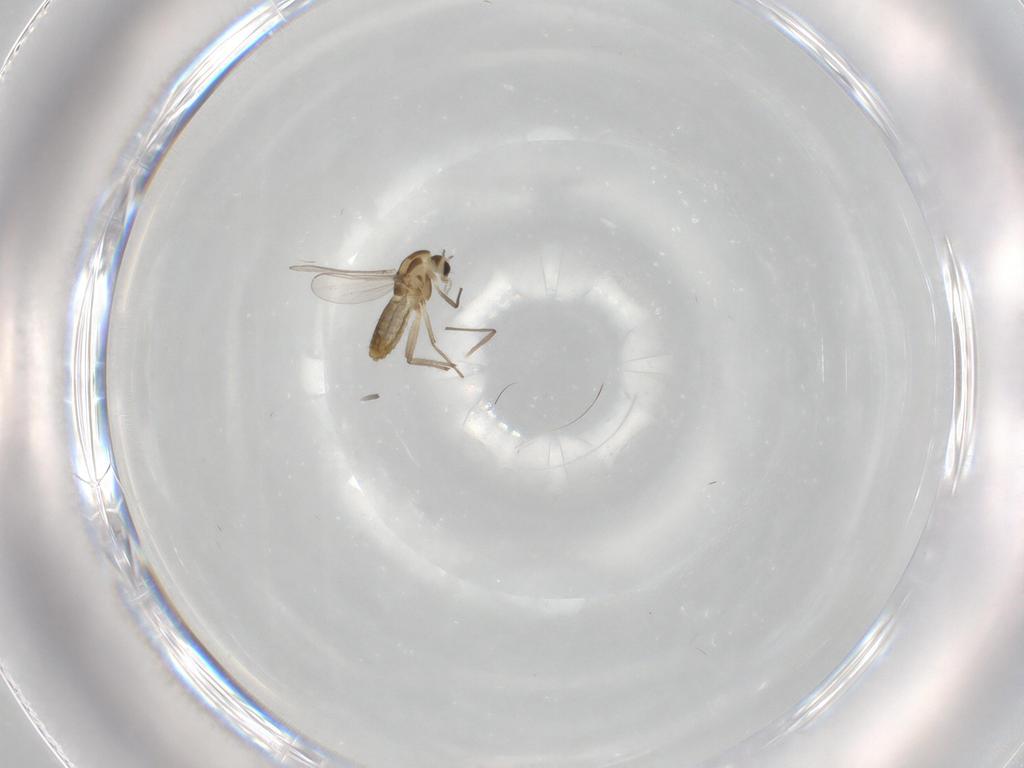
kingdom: Animalia
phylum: Arthropoda
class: Insecta
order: Diptera
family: Chironomidae
